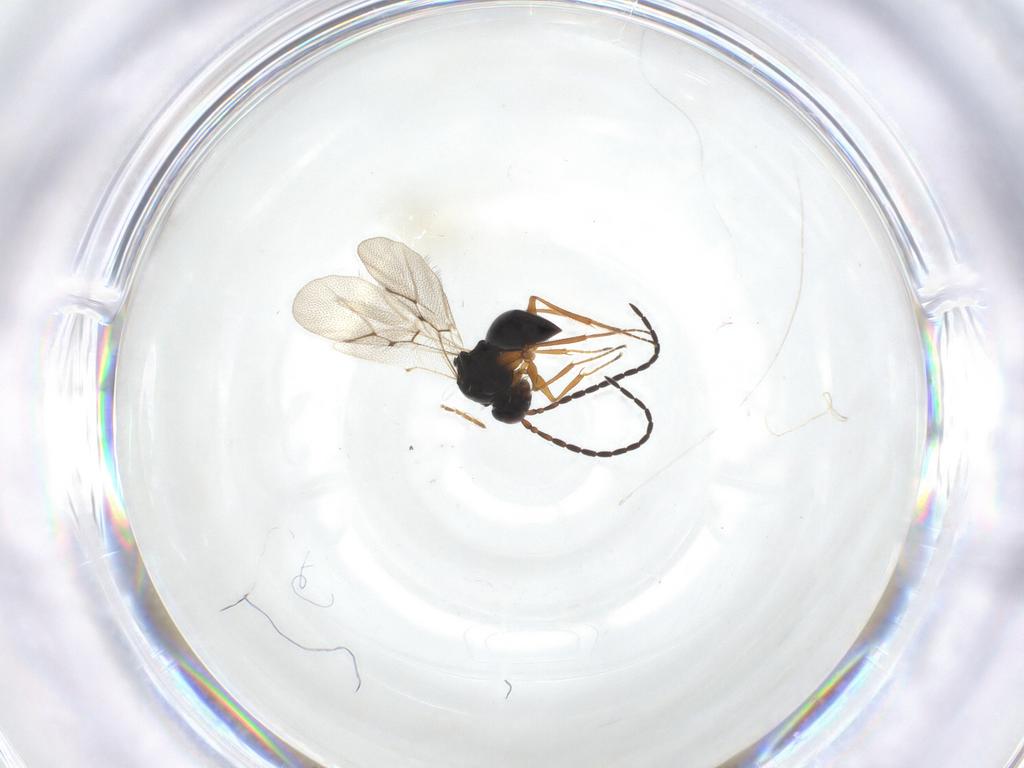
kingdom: Animalia
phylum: Arthropoda
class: Insecta
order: Hymenoptera
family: Figitidae
